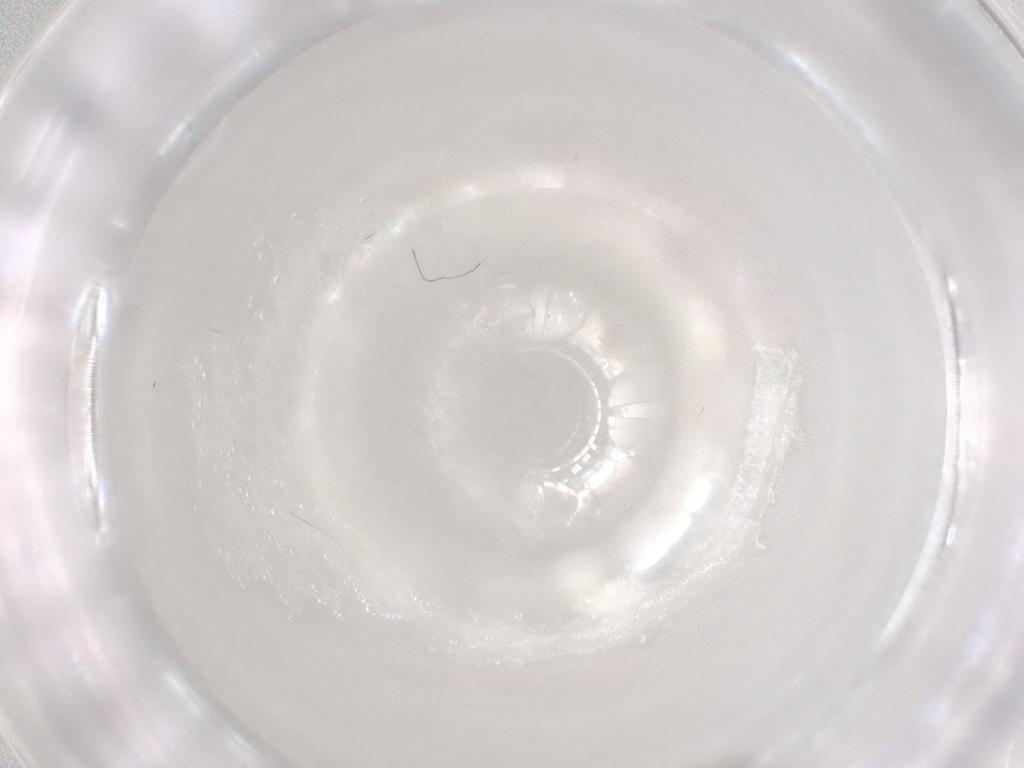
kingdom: Animalia
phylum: Arthropoda
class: Insecta
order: Diptera
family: Sciaridae
